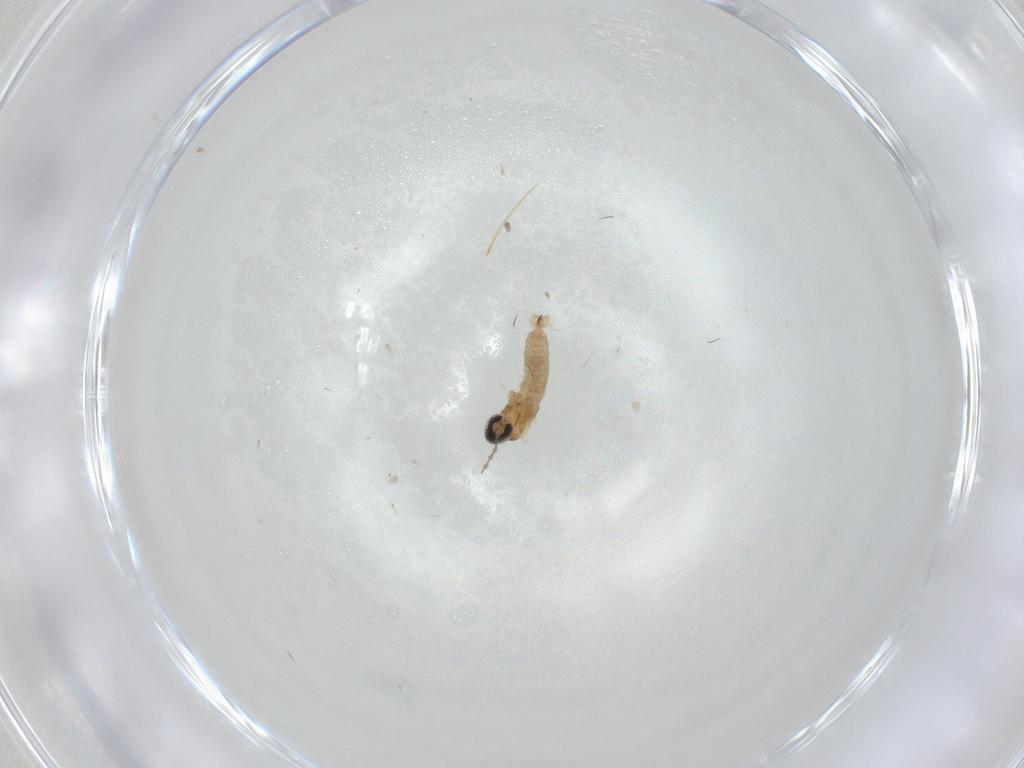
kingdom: Animalia
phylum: Arthropoda
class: Insecta
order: Diptera
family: Cecidomyiidae
